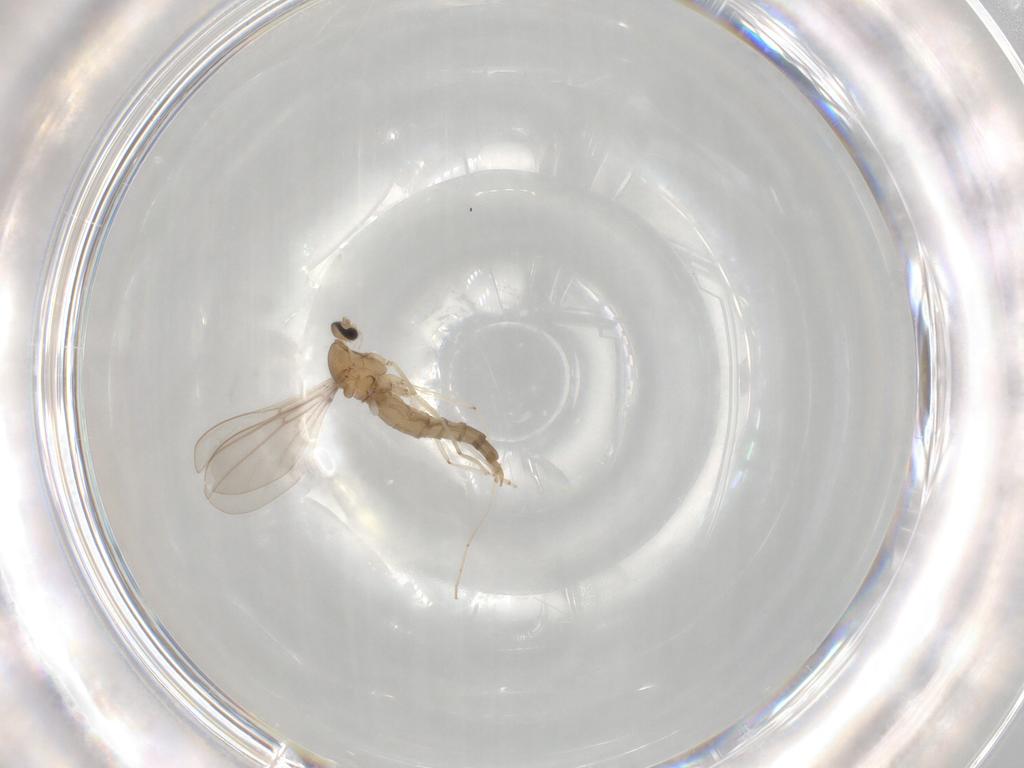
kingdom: Animalia
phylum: Arthropoda
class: Insecta
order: Diptera
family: Cecidomyiidae
